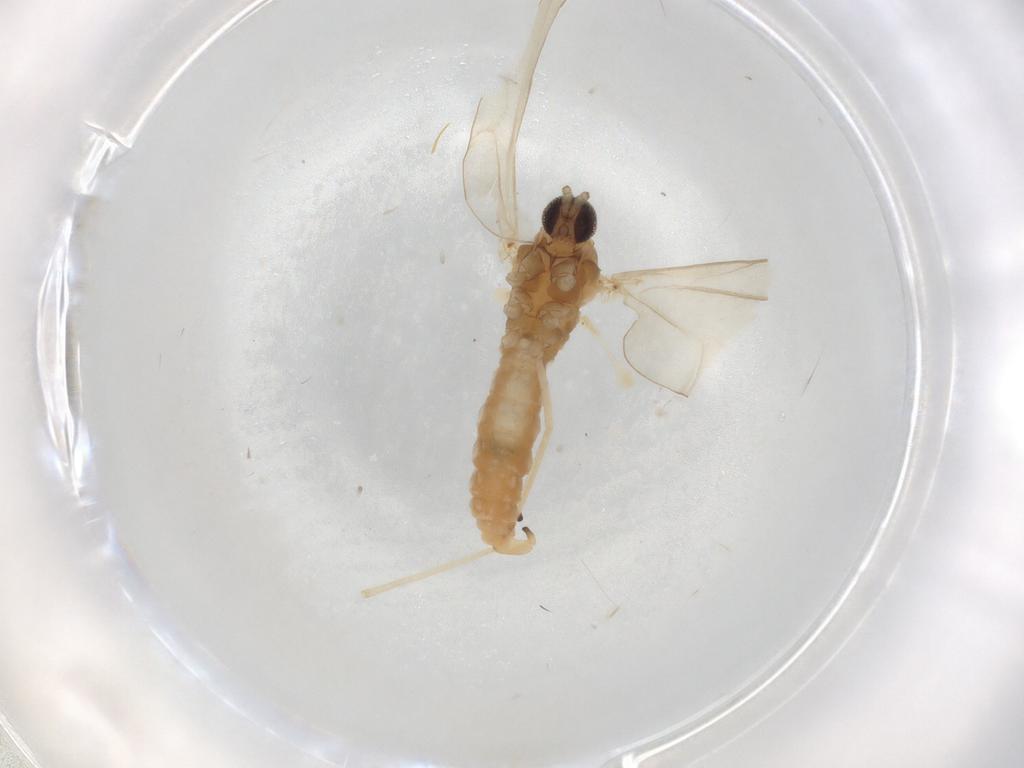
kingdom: Animalia
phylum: Arthropoda
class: Insecta
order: Diptera
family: Cecidomyiidae
